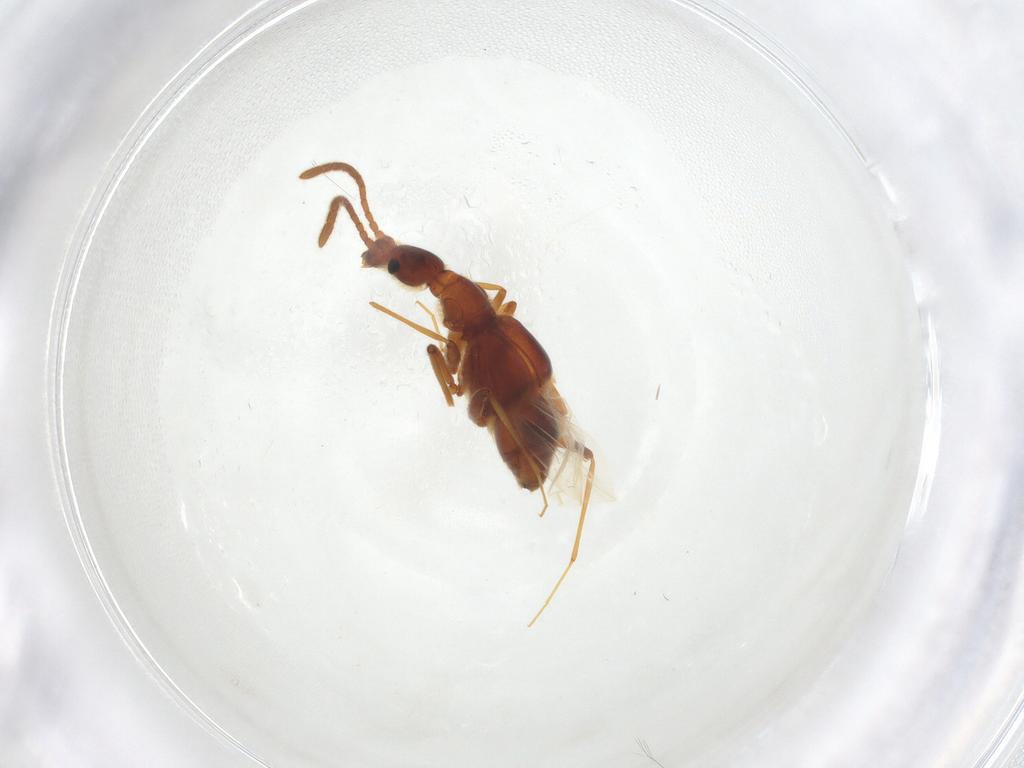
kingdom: Animalia
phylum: Arthropoda
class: Insecta
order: Coleoptera
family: Staphylinidae
